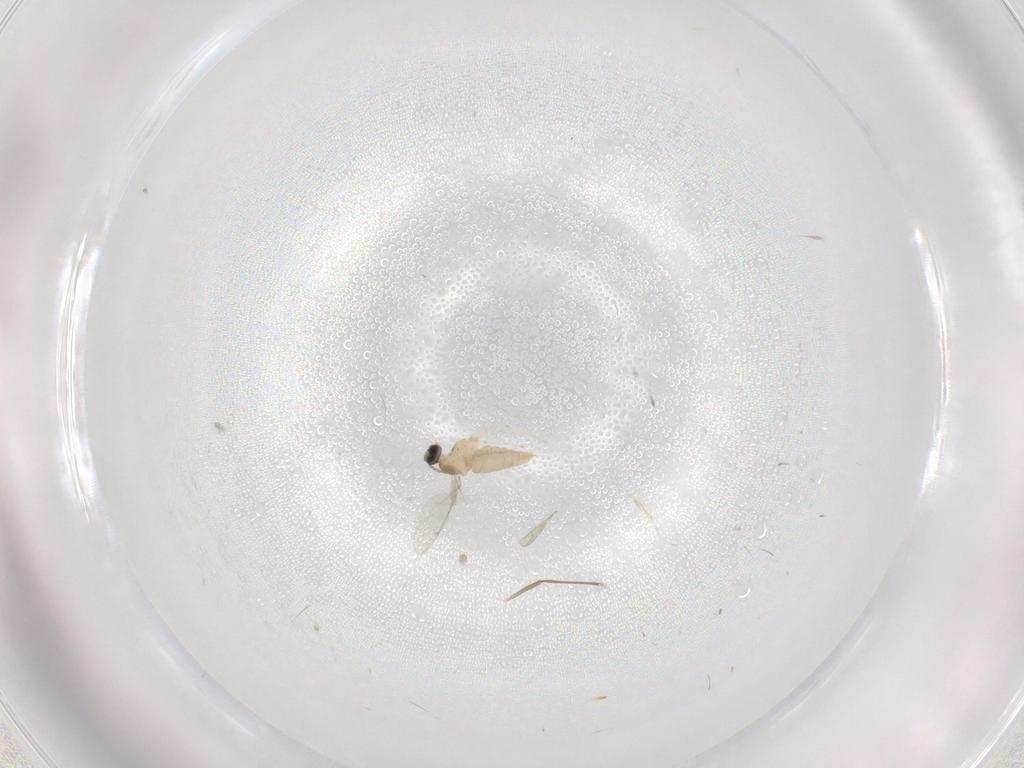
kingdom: Animalia
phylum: Arthropoda
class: Insecta
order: Diptera
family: Cecidomyiidae
